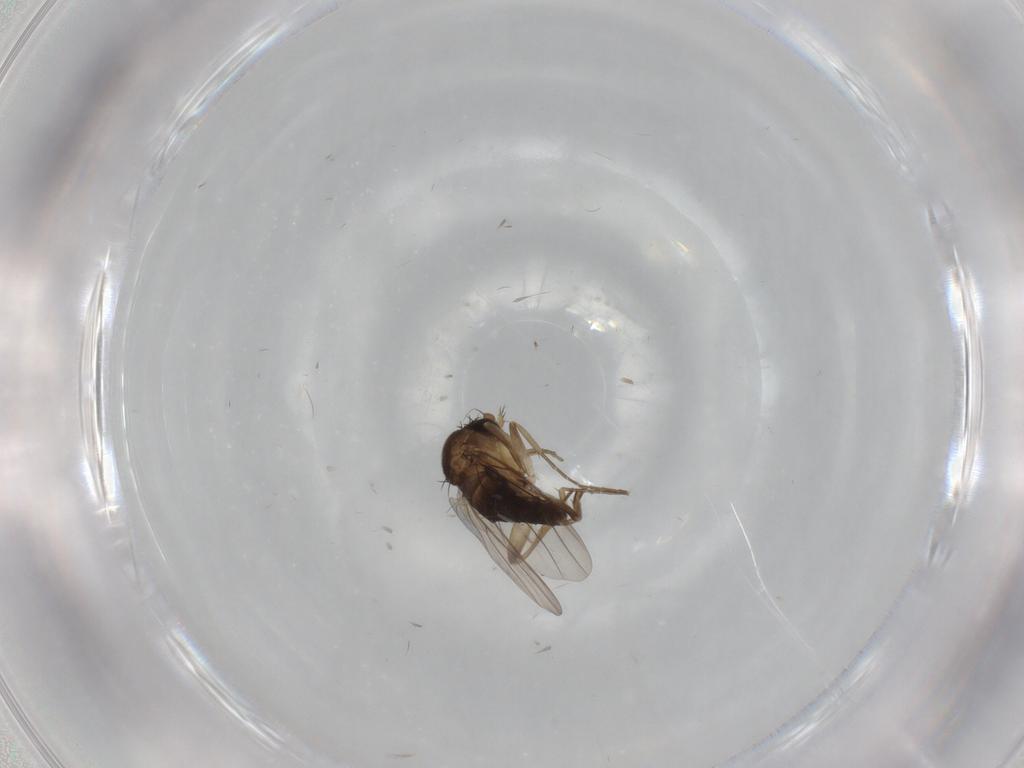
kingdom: Animalia
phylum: Arthropoda
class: Insecta
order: Diptera
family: Phoridae
